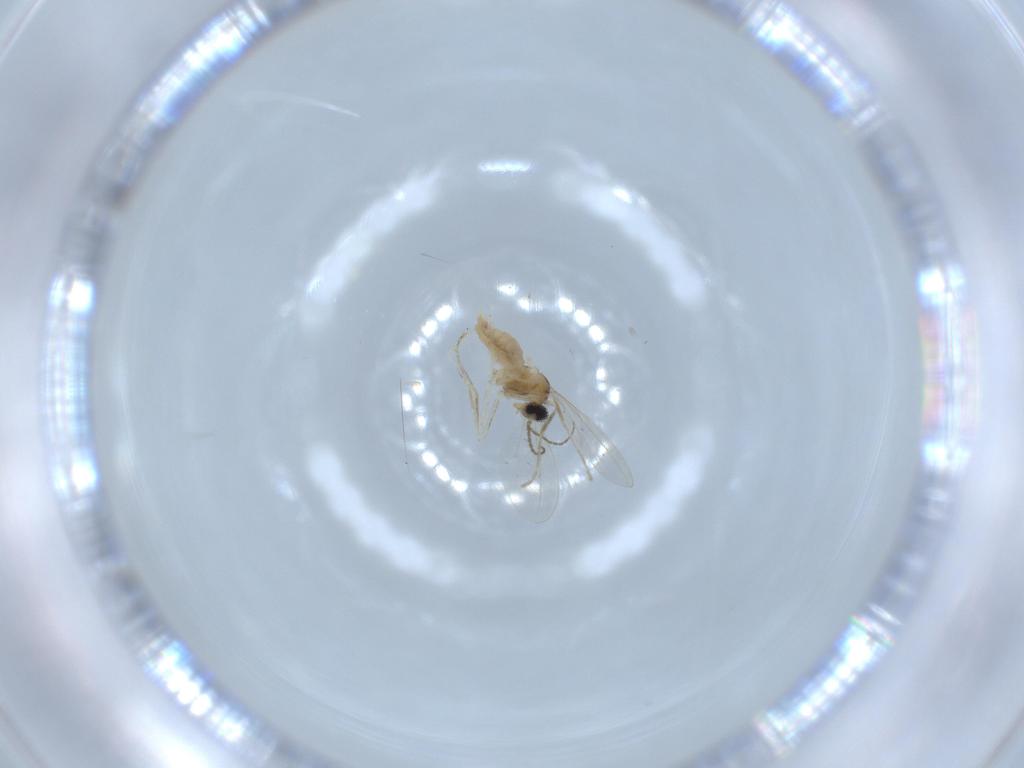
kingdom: Animalia
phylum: Arthropoda
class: Insecta
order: Diptera
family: Cecidomyiidae
